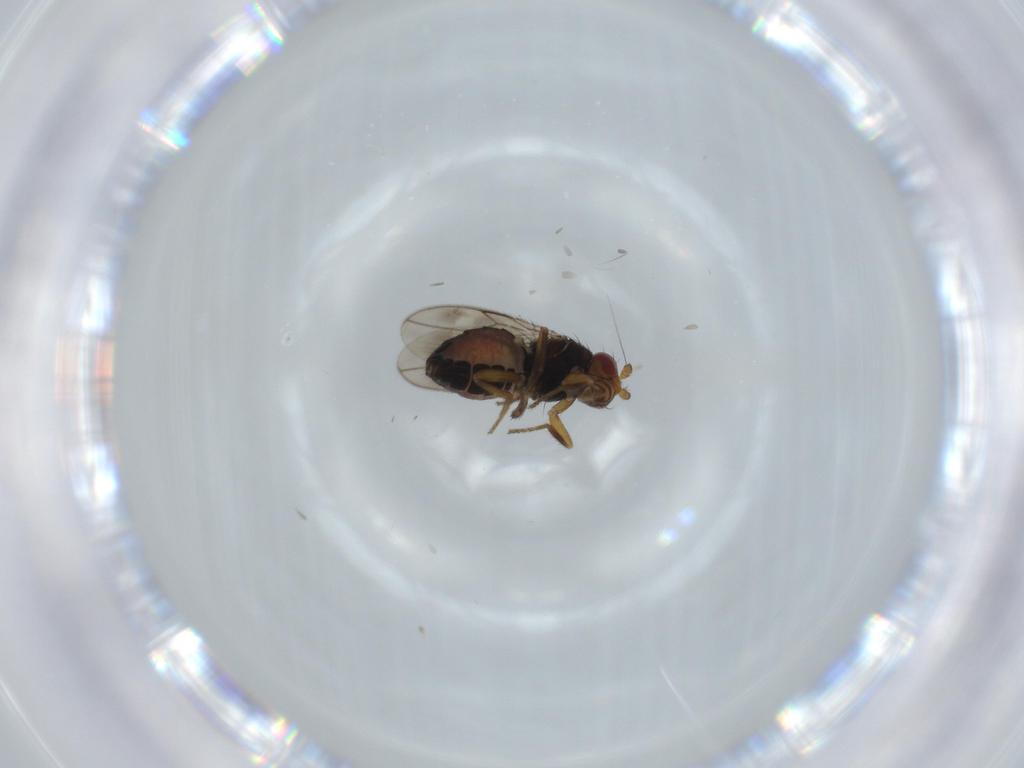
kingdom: Animalia
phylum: Arthropoda
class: Insecta
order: Diptera
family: Sphaeroceridae
